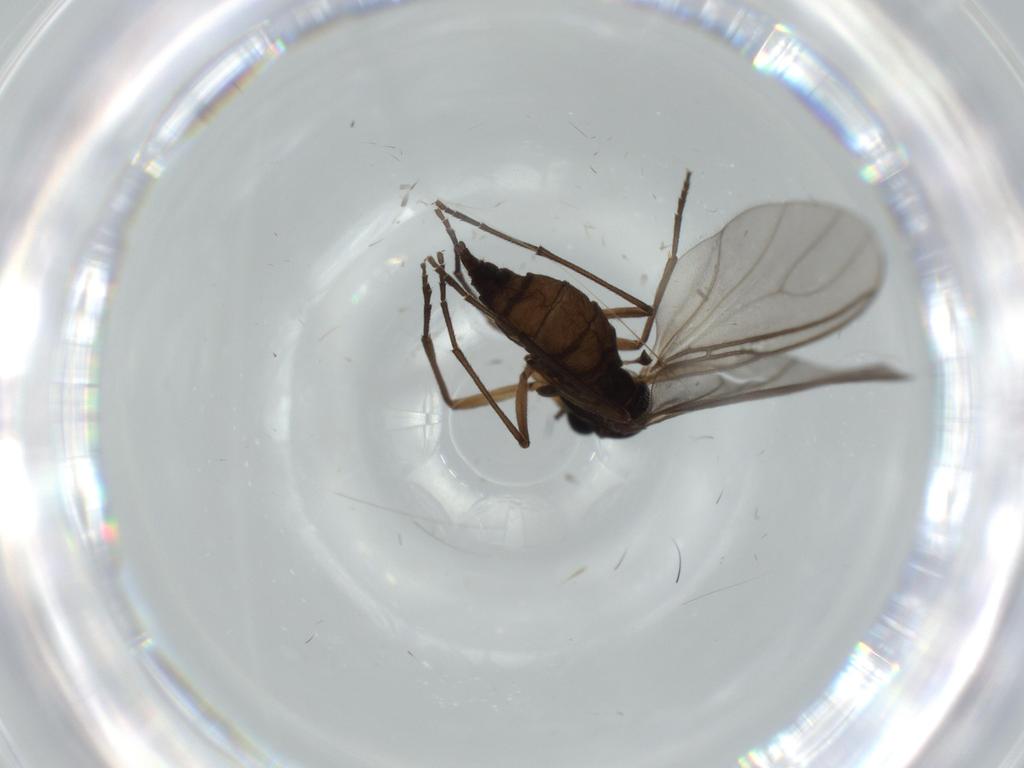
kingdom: Animalia
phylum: Arthropoda
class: Insecta
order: Diptera
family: Sciaridae
